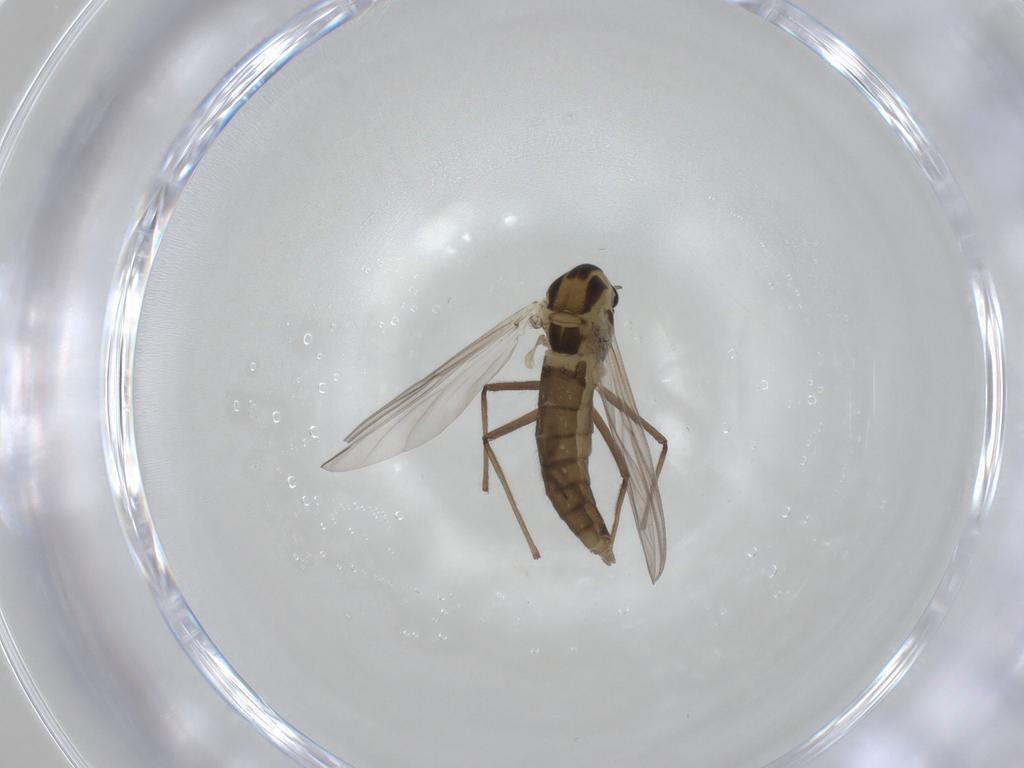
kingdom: Animalia
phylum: Arthropoda
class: Insecta
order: Diptera
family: Chironomidae
